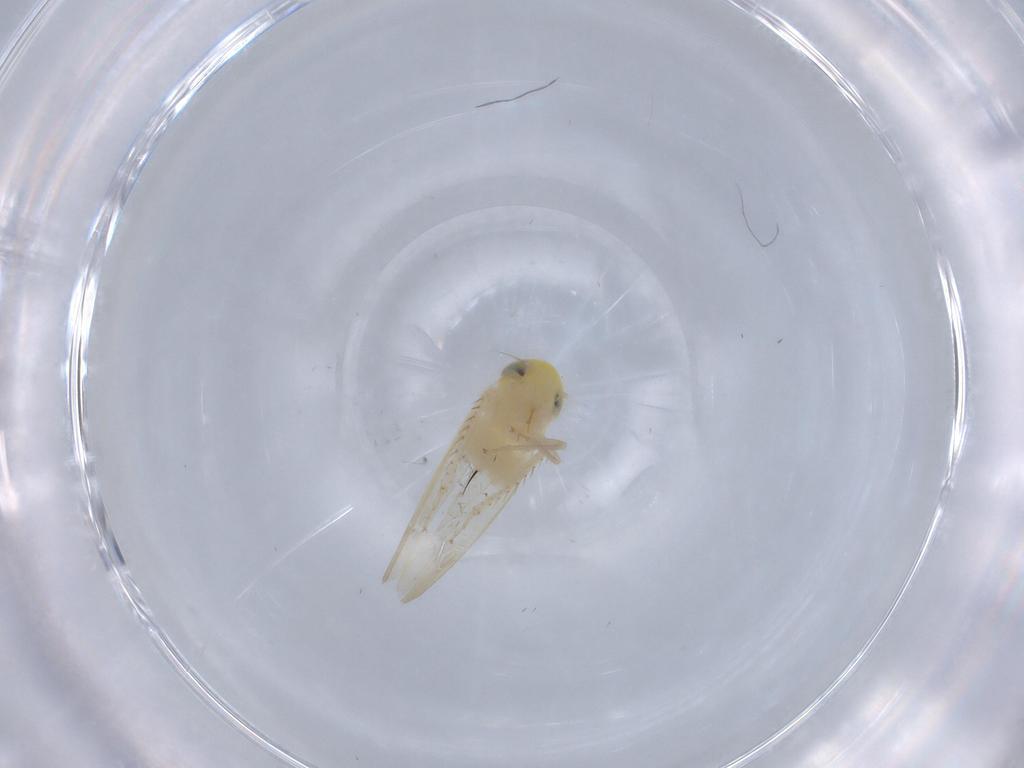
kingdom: Animalia
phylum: Arthropoda
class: Insecta
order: Hemiptera
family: Cicadellidae
